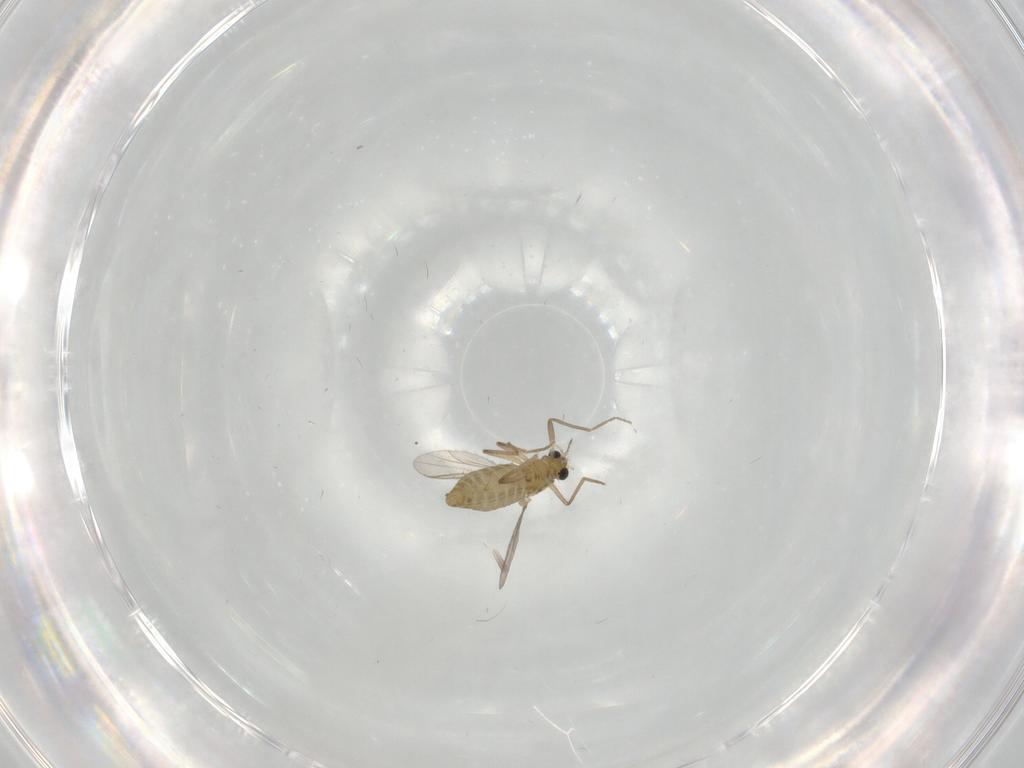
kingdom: Animalia
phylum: Arthropoda
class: Insecta
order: Diptera
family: Chironomidae
